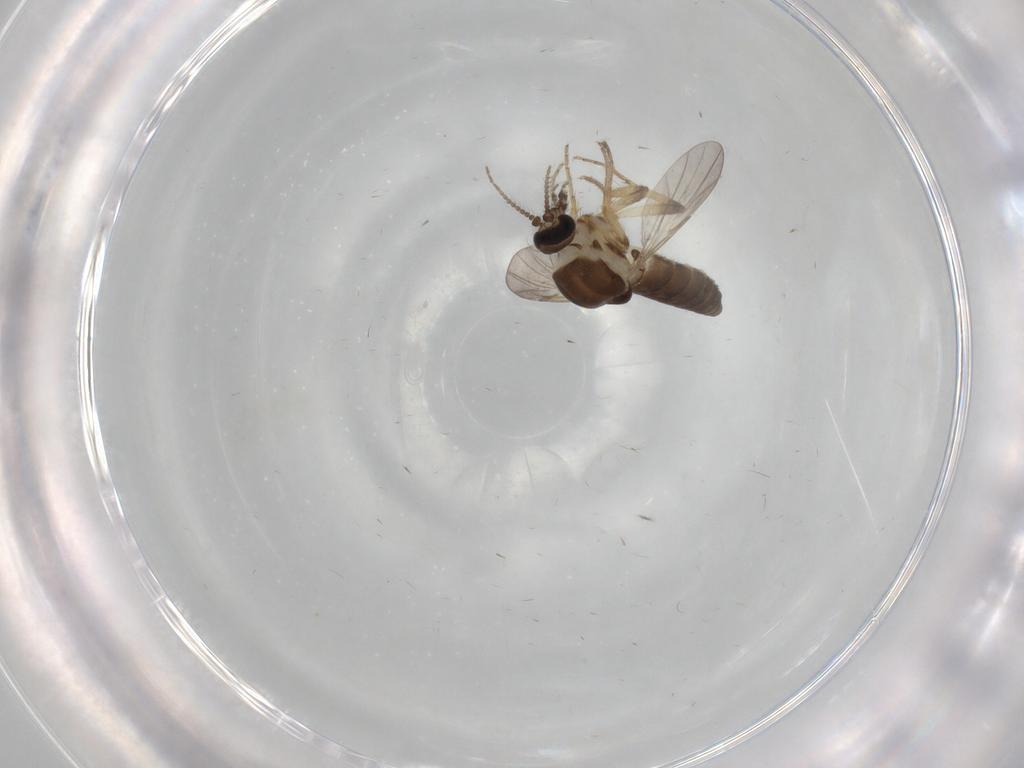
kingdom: Animalia
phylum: Arthropoda
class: Insecta
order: Diptera
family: Ceratopogonidae
